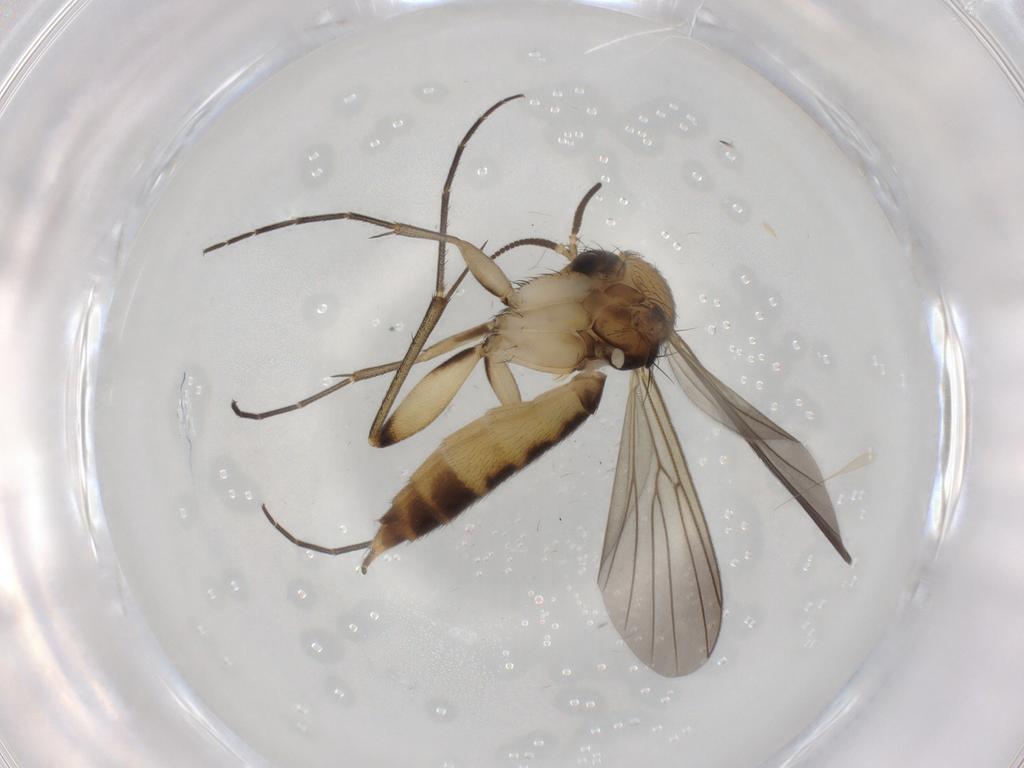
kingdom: Animalia
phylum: Arthropoda
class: Insecta
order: Diptera
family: Mycetophilidae
